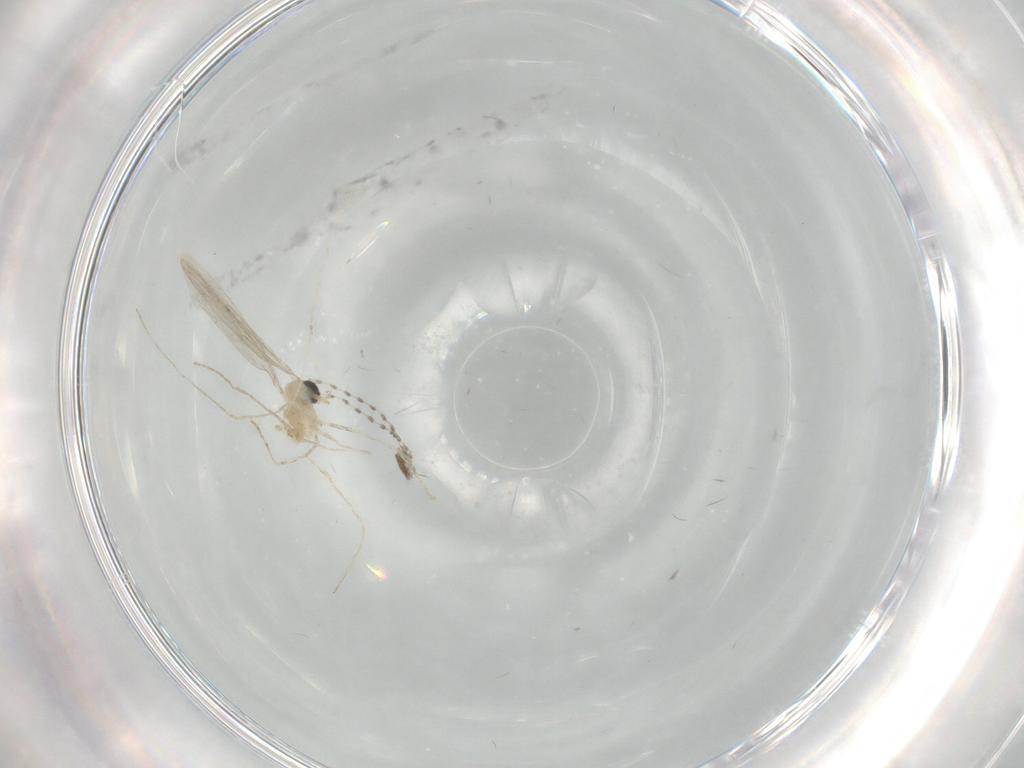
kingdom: Animalia
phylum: Arthropoda
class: Insecta
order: Diptera
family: Cecidomyiidae
